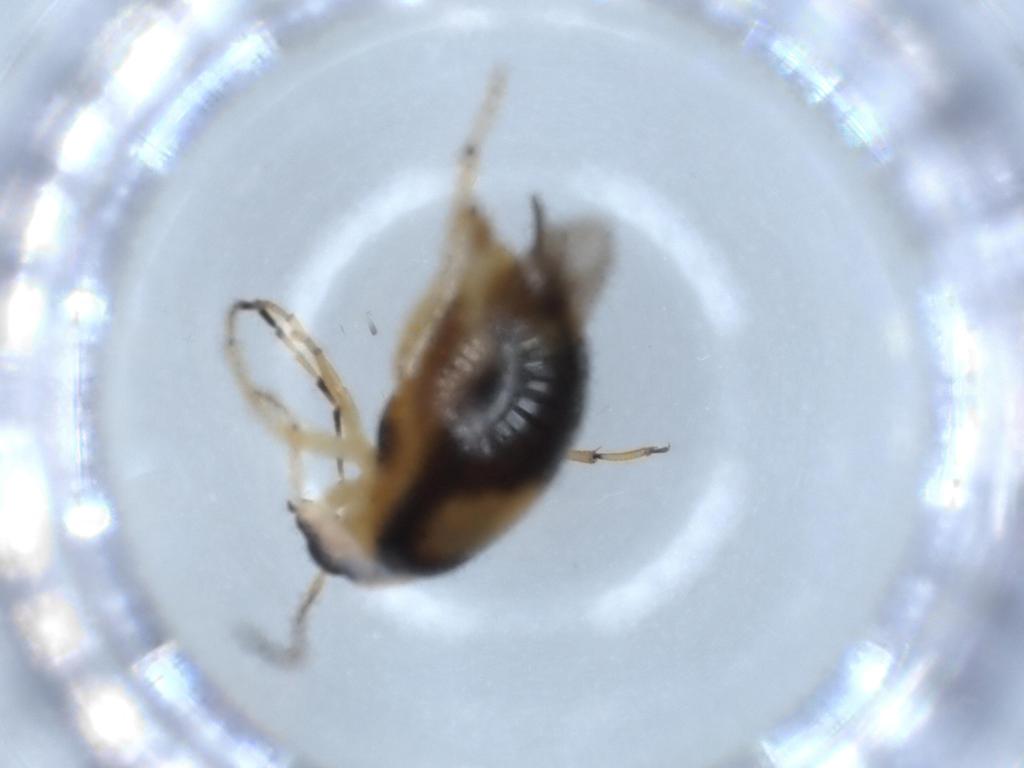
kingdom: Animalia
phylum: Arthropoda
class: Insecta
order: Coleoptera
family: Chrysomelidae
